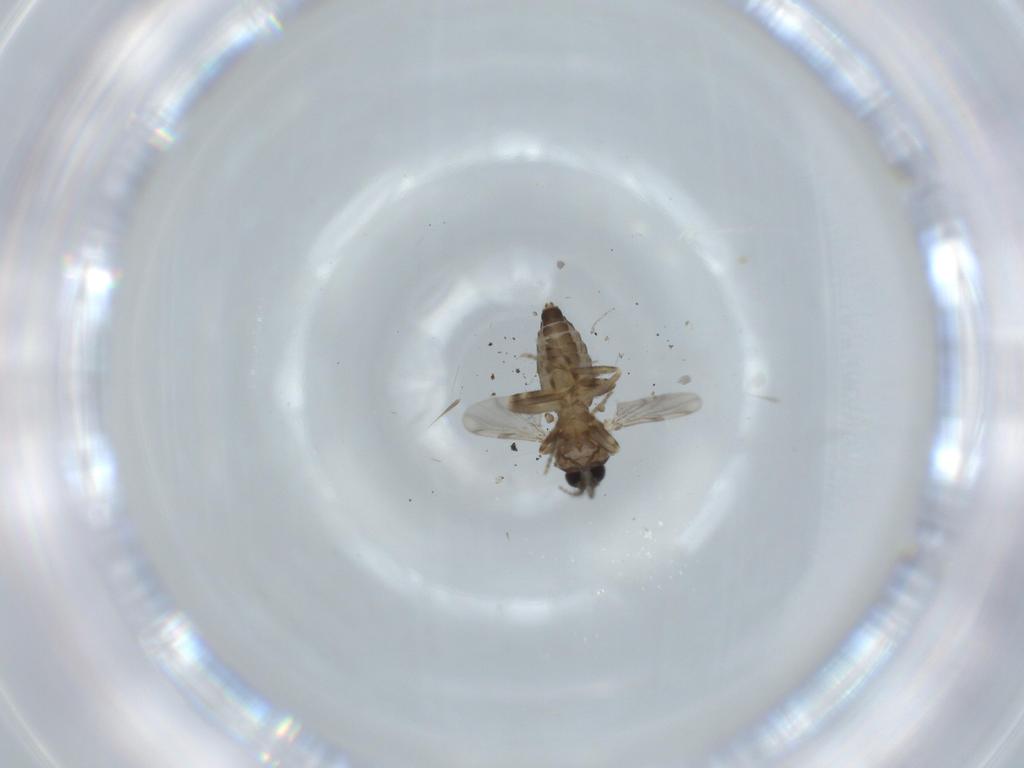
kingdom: Animalia
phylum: Arthropoda
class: Insecta
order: Diptera
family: Ceratopogonidae
